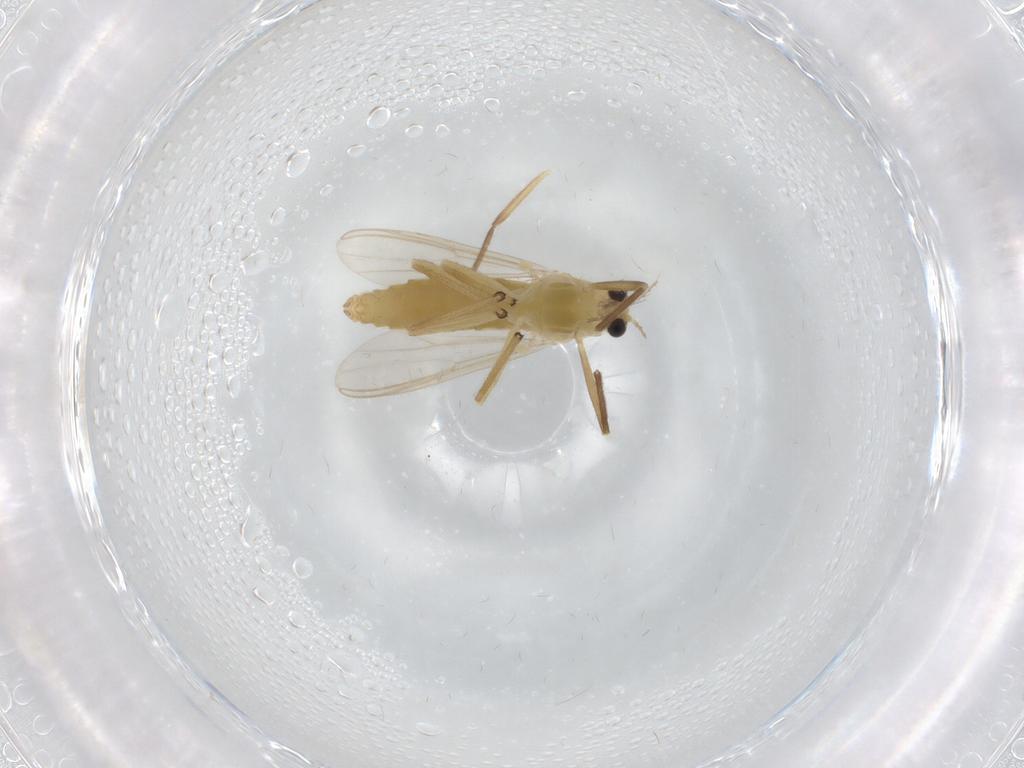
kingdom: Animalia
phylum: Arthropoda
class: Insecta
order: Diptera
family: Chironomidae
